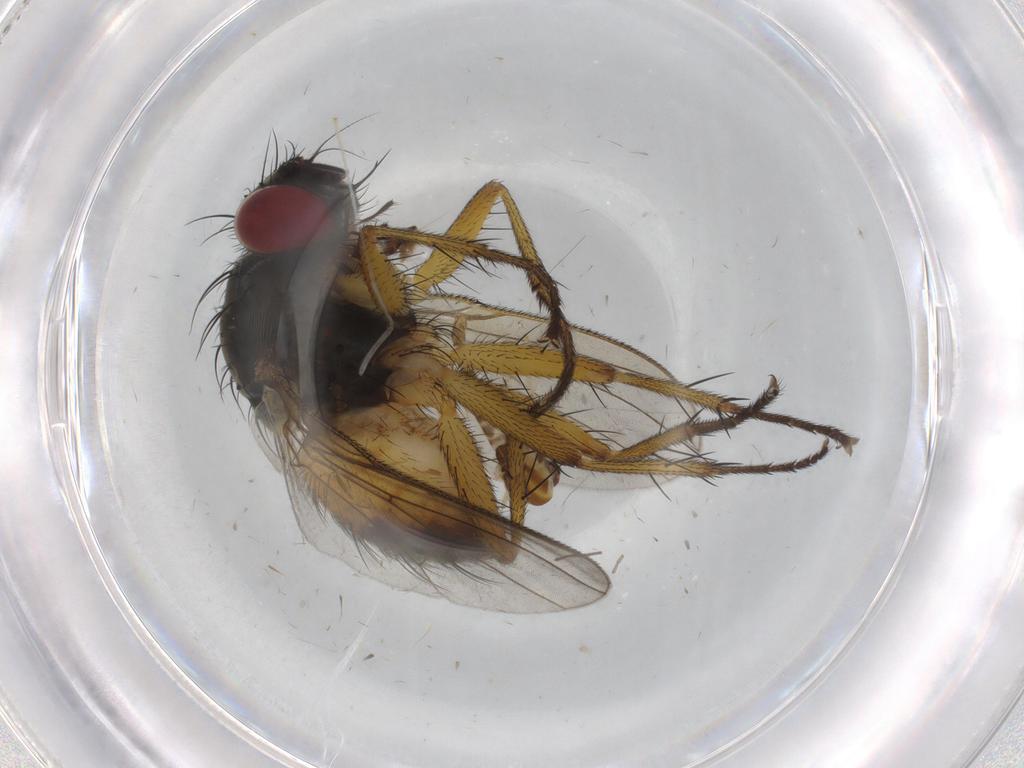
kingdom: Animalia
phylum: Arthropoda
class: Insecta
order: Diptera
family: Muscidae
